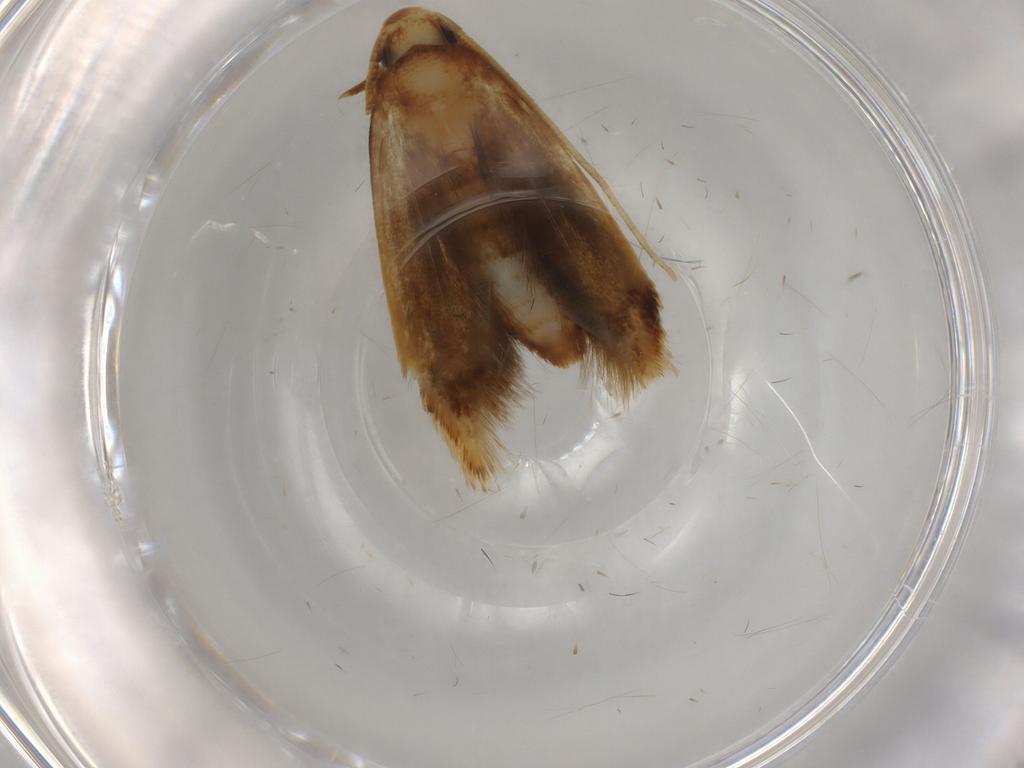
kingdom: Animalia
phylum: Arthropoda
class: Insecta
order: Lepidoptera
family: Tineidae
